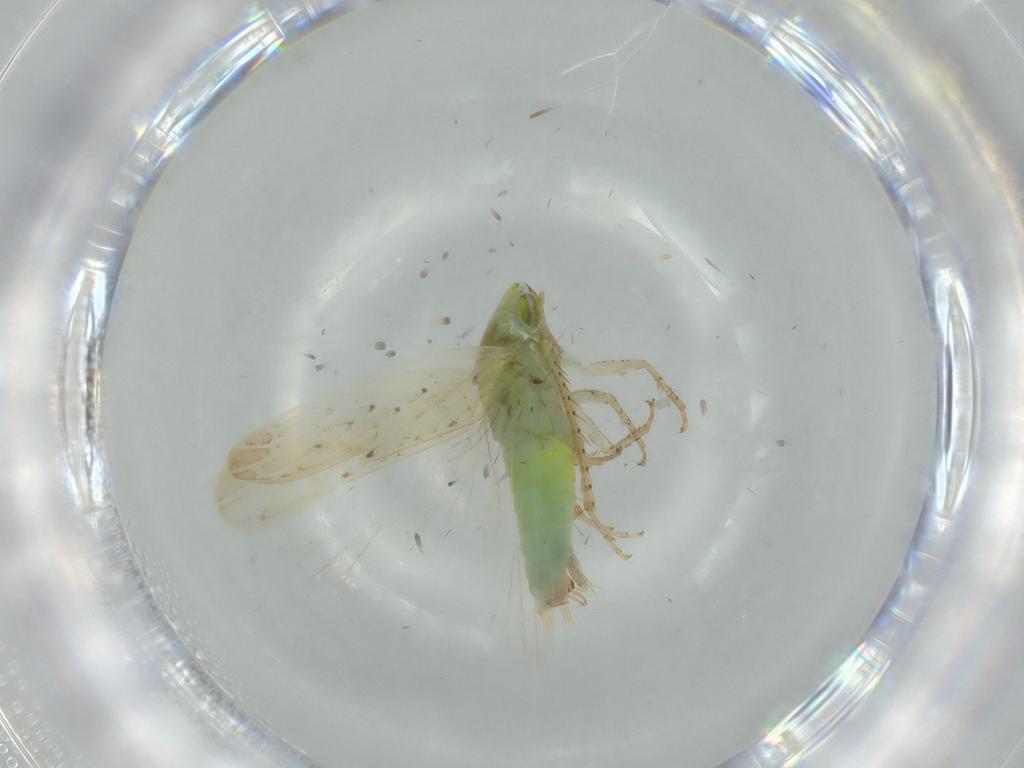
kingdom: Animalia
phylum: Arthropoda
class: Insecta
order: Hemiptera
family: Cicadellidae
